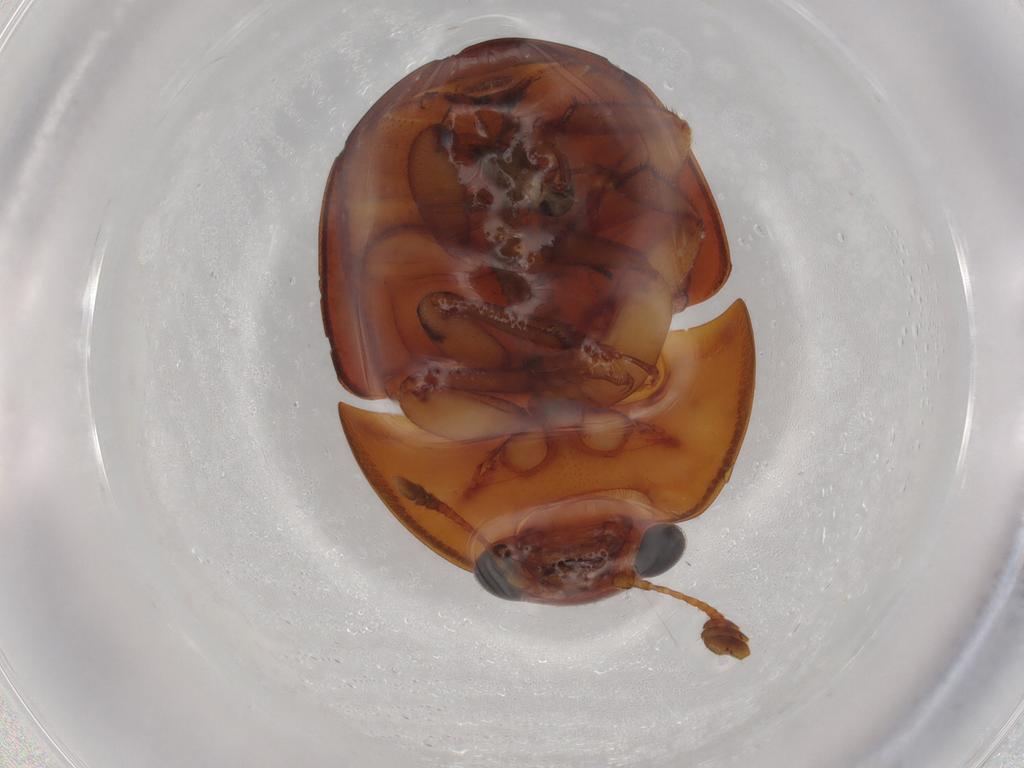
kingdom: Animalia
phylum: Arthropoda
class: Insecta
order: Coleoptera
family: Nitidulidae
